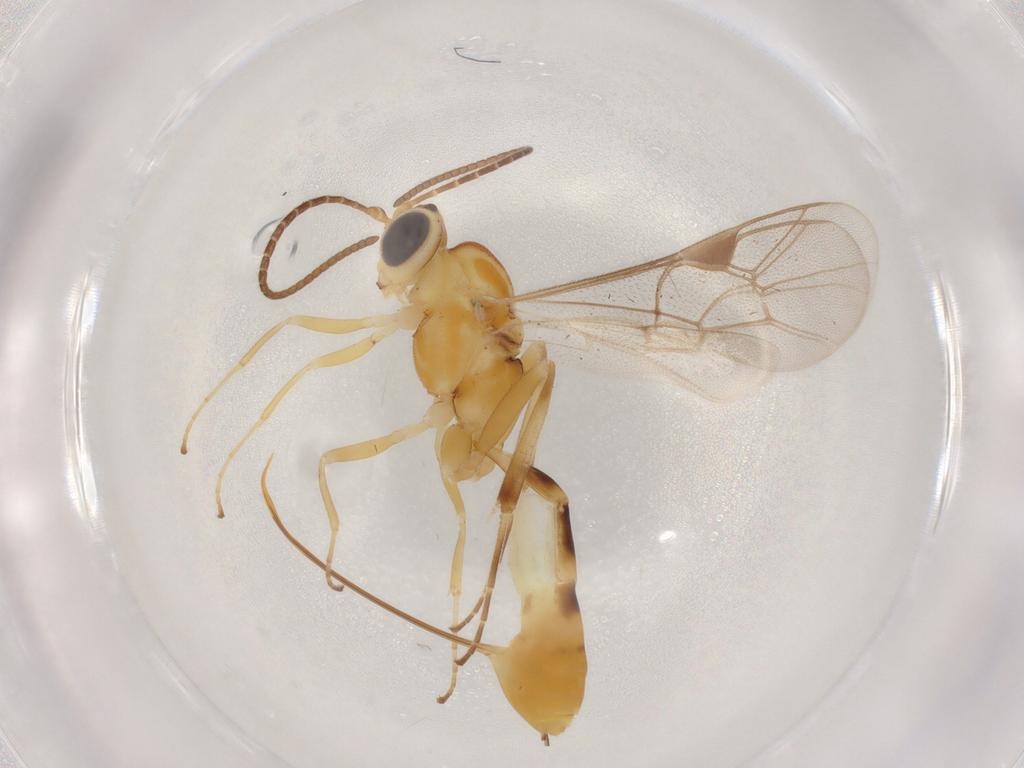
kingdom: Animalia
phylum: Arthropoda
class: Insecta
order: Hymenoptera
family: Ichneumonidae
